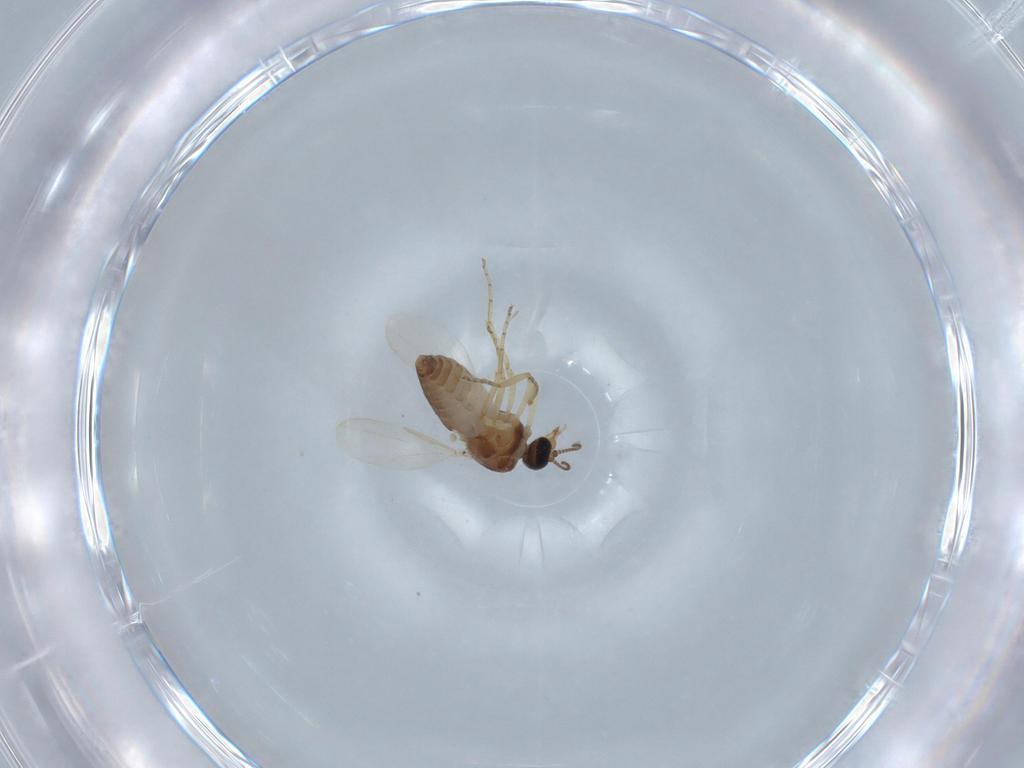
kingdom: Animalia
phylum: Arthropoda
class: Insecta
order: Diptera
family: Ceratopogonidae
